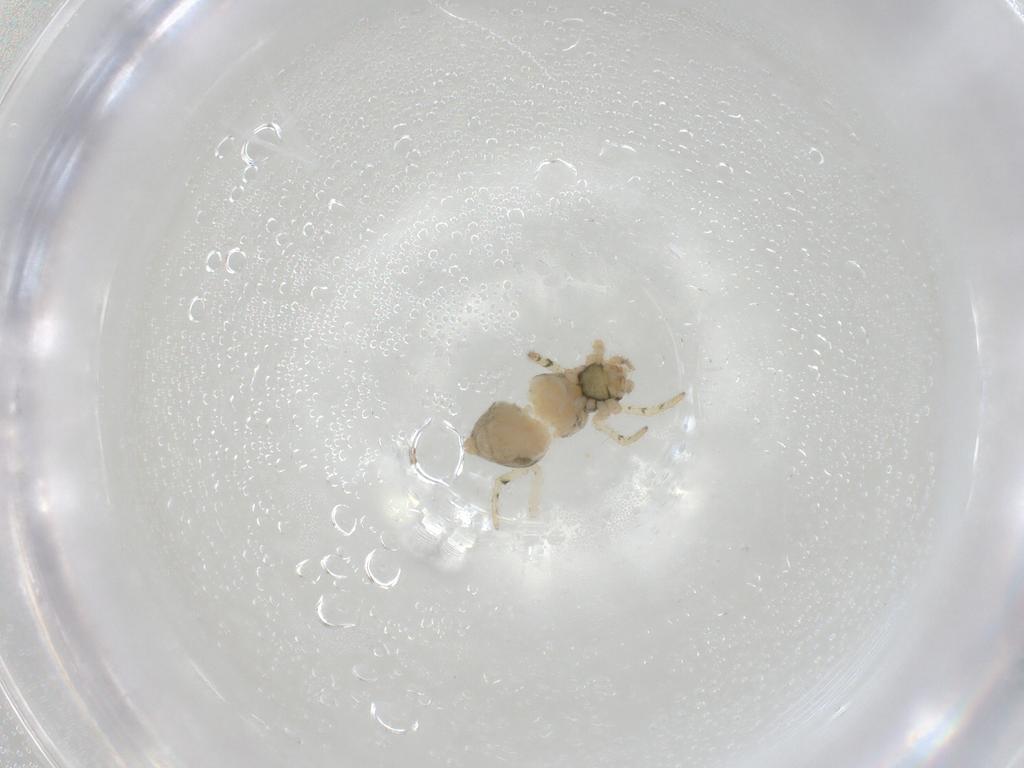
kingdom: Animalia
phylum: Arthropoda
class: Arachnida
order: Araneae
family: Theridiidae
